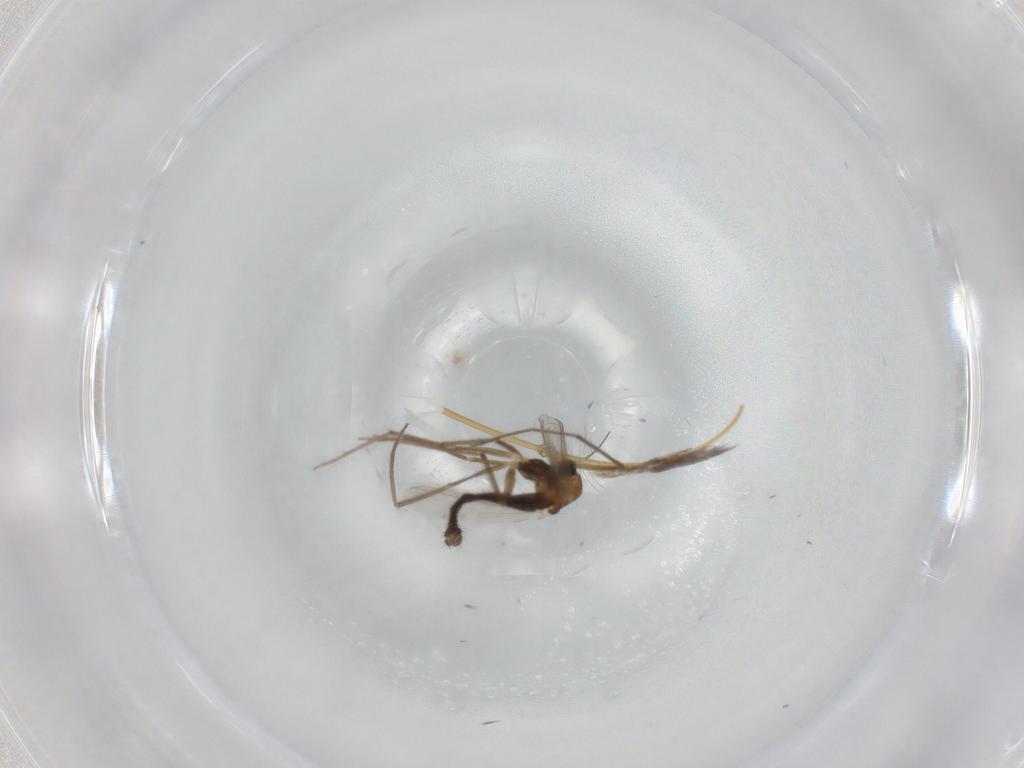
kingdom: Animalia
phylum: Arthropoda
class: Insecta
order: Diptera
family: Chironomidae
